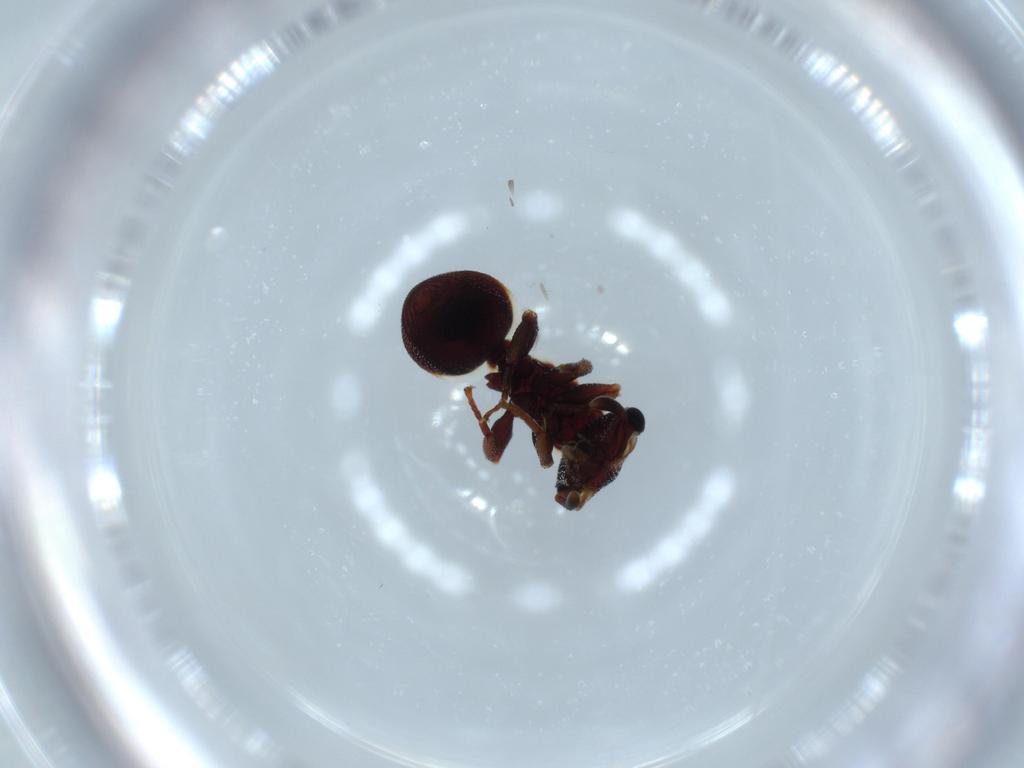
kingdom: Animalia
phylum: Arthropoda
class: Insecta
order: Hymenoptera
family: Formicidae
